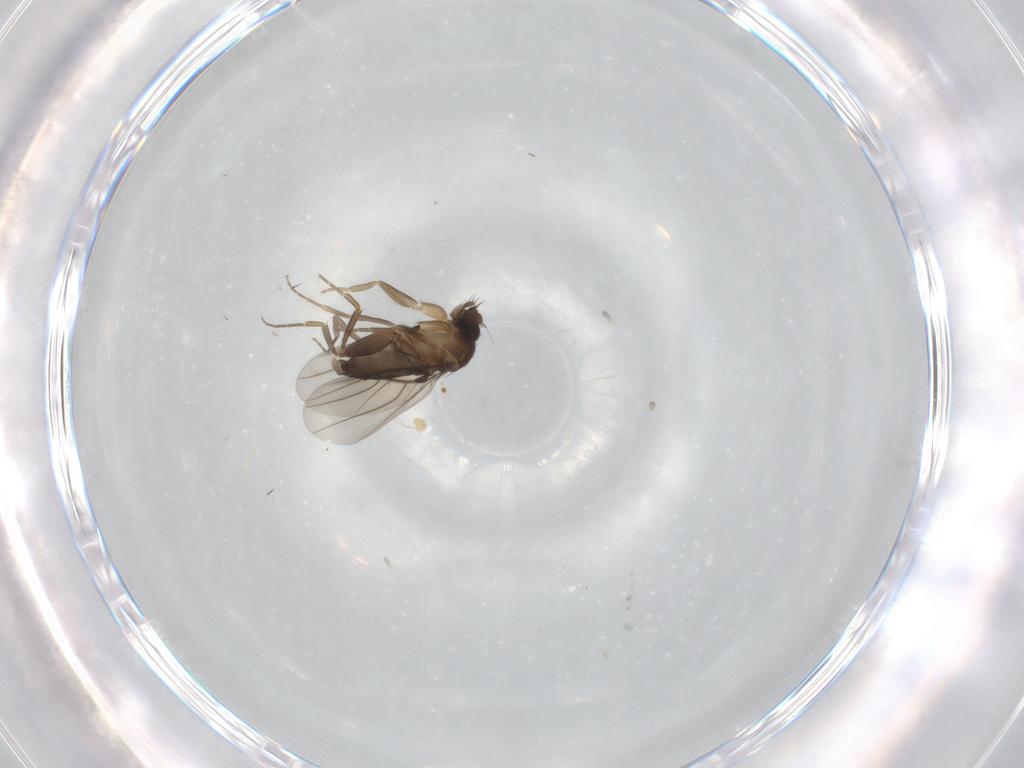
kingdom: Animalia
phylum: Arthropoda
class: Insecta
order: Diptera
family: Phoridae
